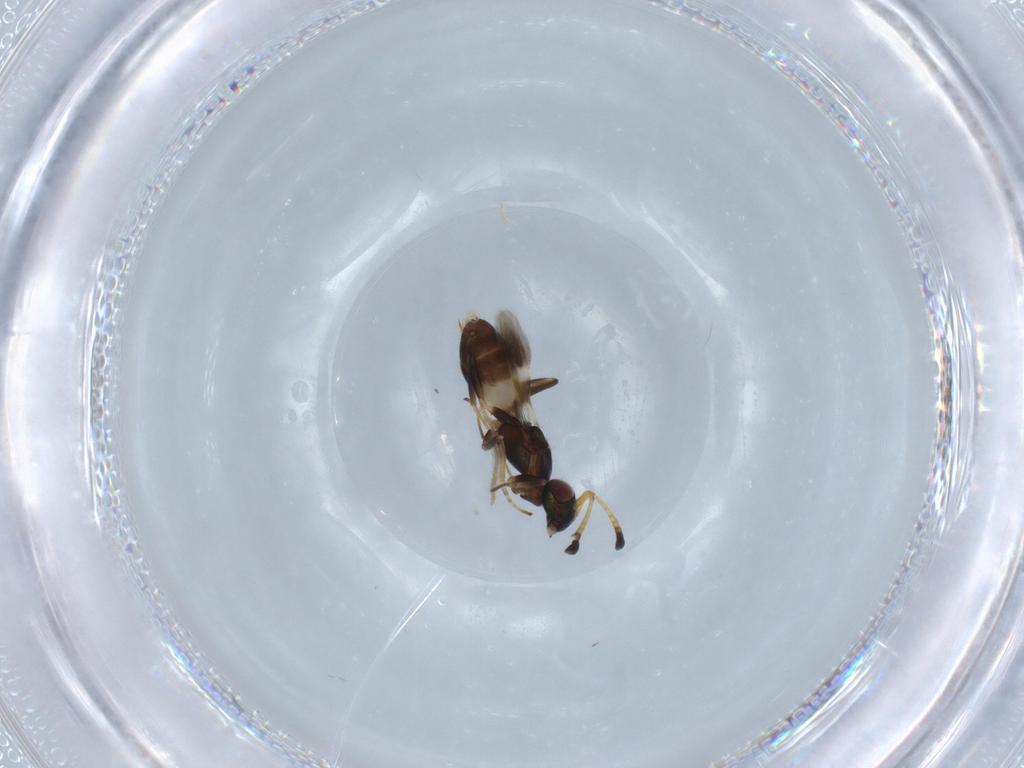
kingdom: Animalia
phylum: Arthropoda
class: Insecta
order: Hymenoptera
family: Eupelmidae
